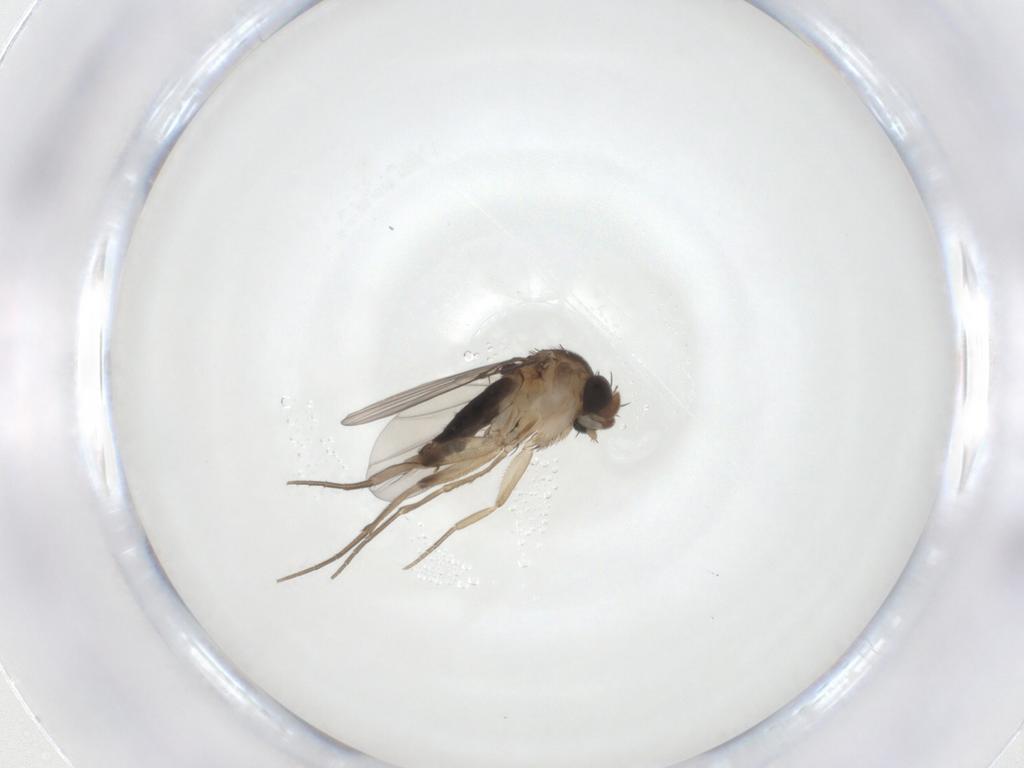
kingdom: Animalia
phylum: Arthropoda
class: Insecta
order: Diptera
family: Phoridae
